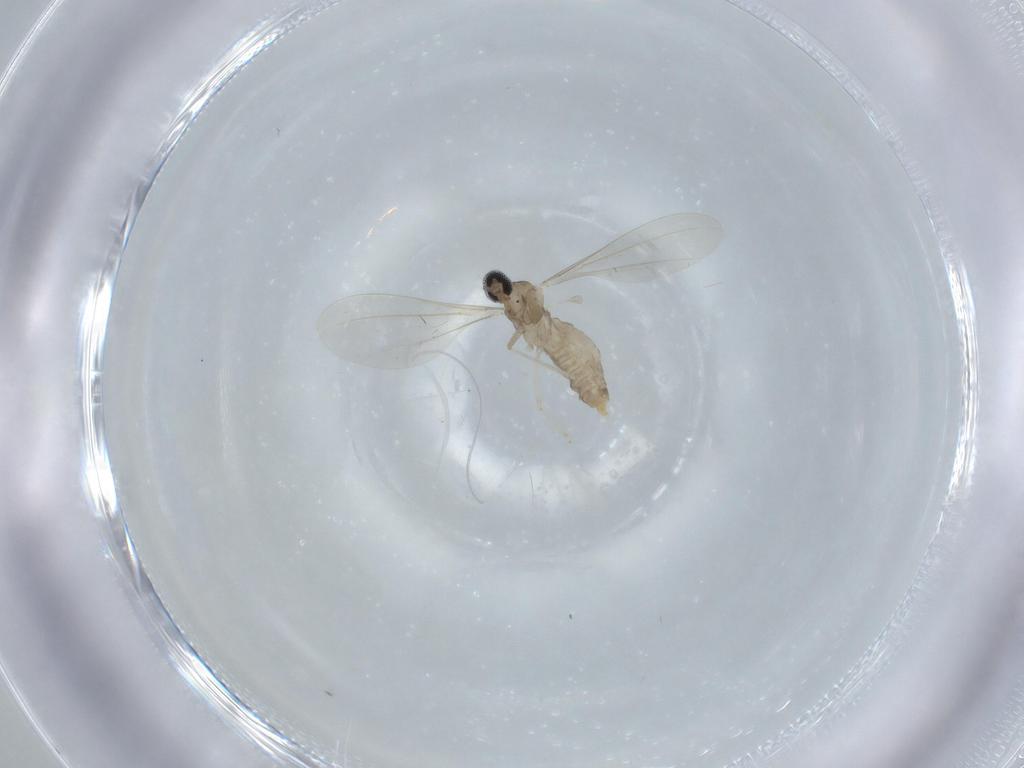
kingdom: Animalia
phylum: Arthropoda
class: Insecta
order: Diptera
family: Cecidomyiidae
